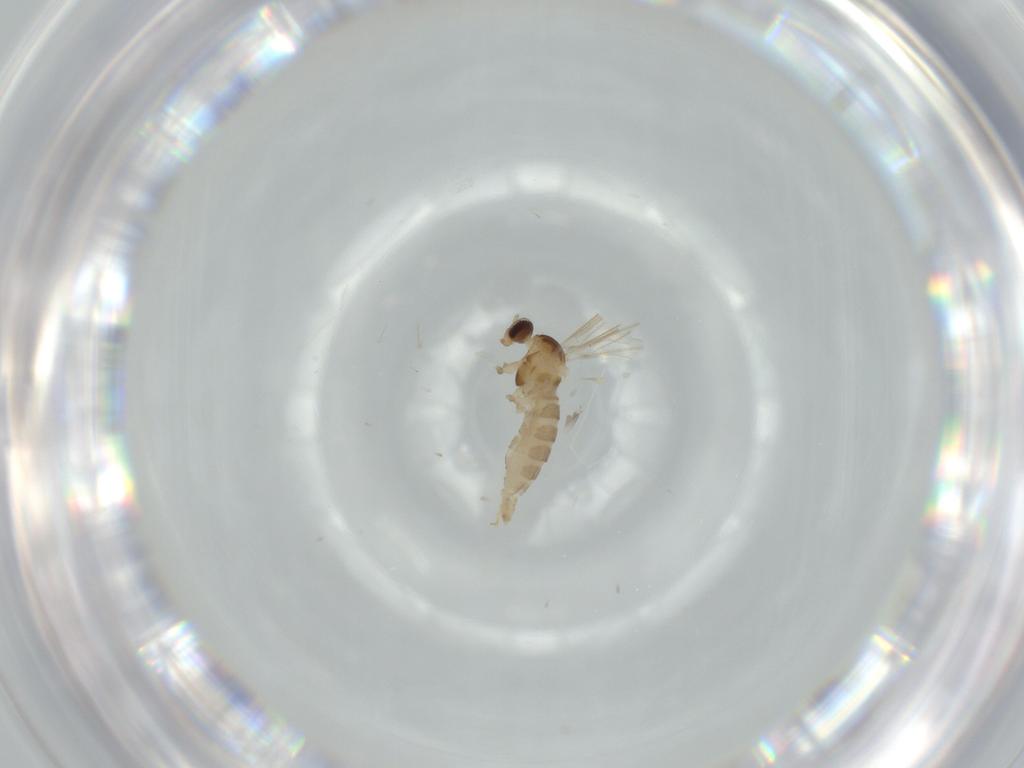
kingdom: Animalia
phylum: Arthropoda
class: Insecta
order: Diptera
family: Cecidomyiidae
